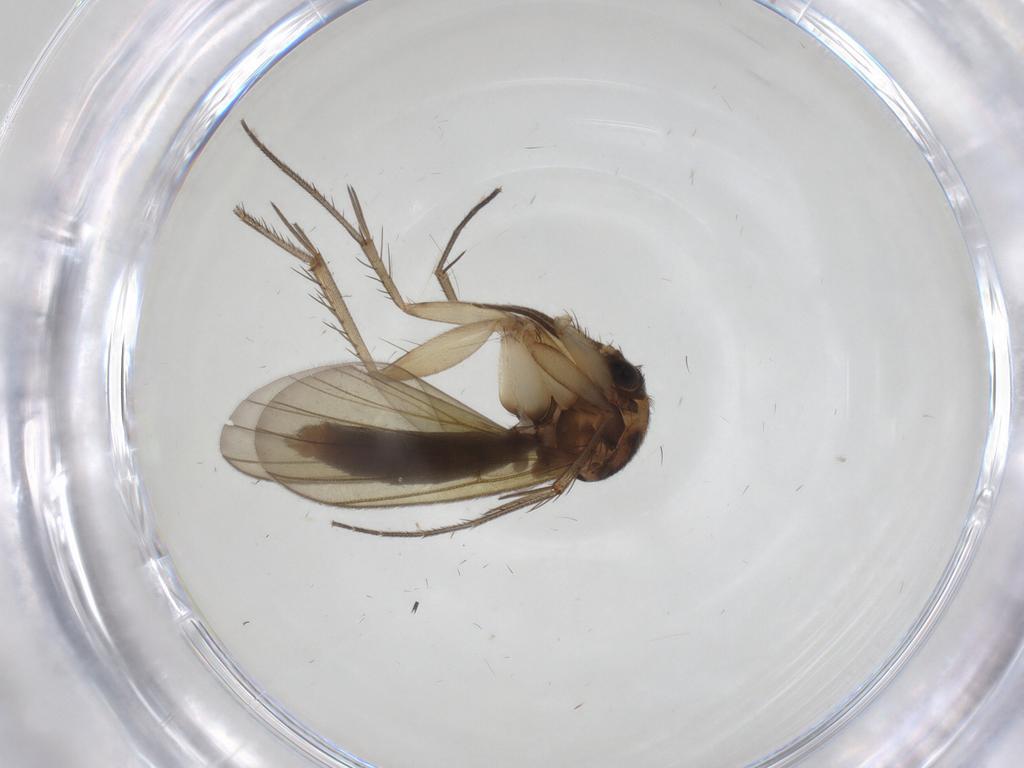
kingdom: Animalia
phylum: Arthropoda
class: Insecta
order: Diptera
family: Mycetophilidae
